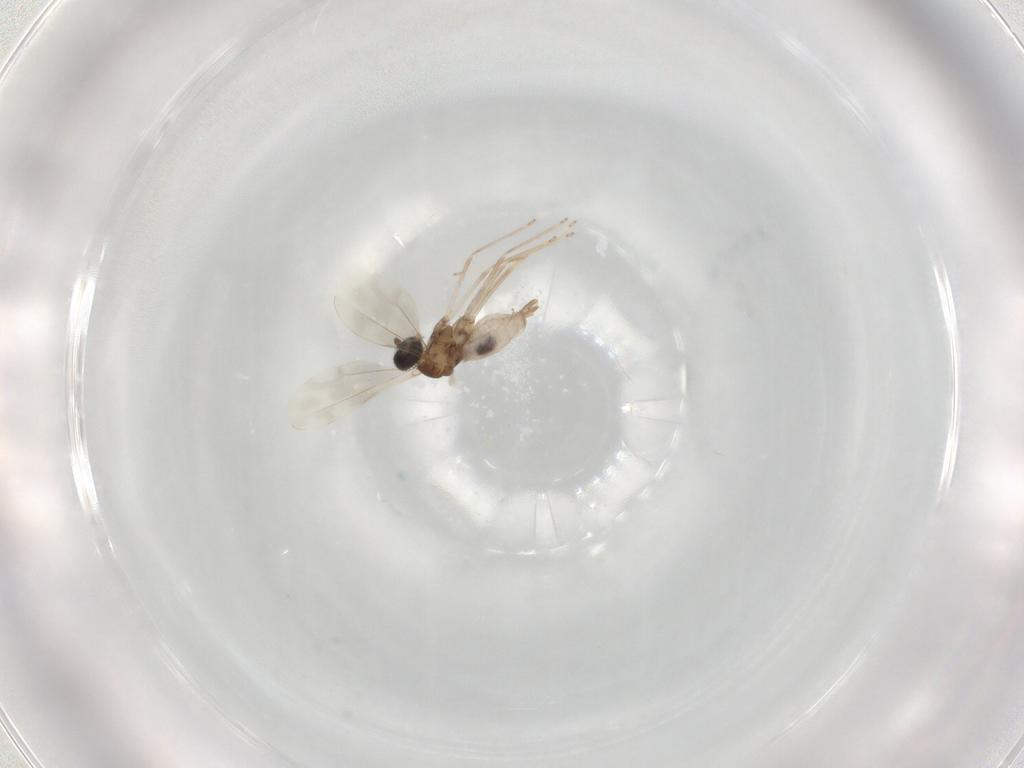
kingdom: Animalia
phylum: Arthropoda
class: Insecta
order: Diptera
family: Cecidomyiidae
